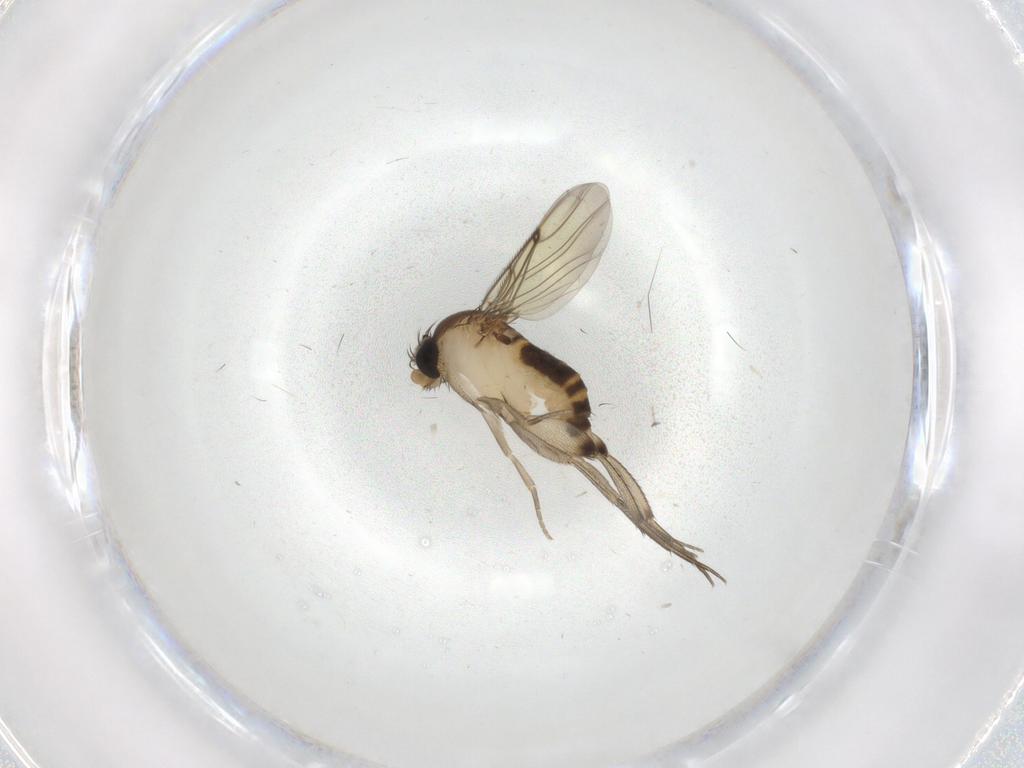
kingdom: Animalia
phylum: Arthropoda
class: Insecta
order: Diptera
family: Phoridae
